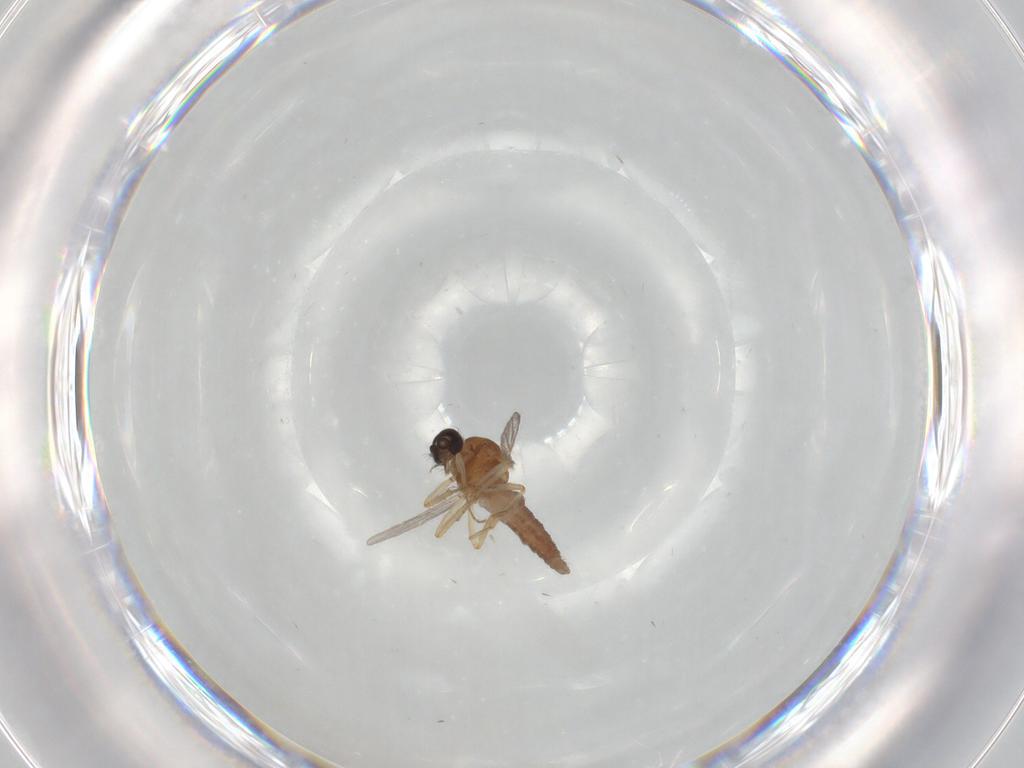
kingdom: Animalia
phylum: Arthropoda
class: Insecta
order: Diptera
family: Ceratopogonidae
